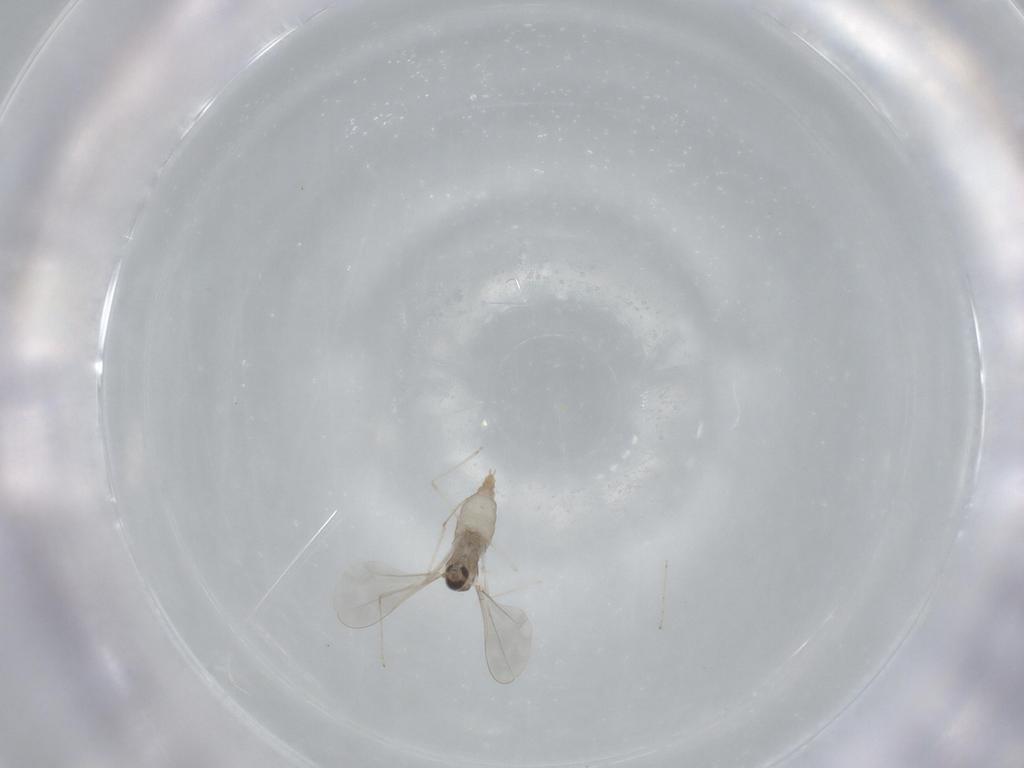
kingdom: Animalia
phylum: Arthropoda
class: Insecta
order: Diptera
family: Cecidomyiidae
